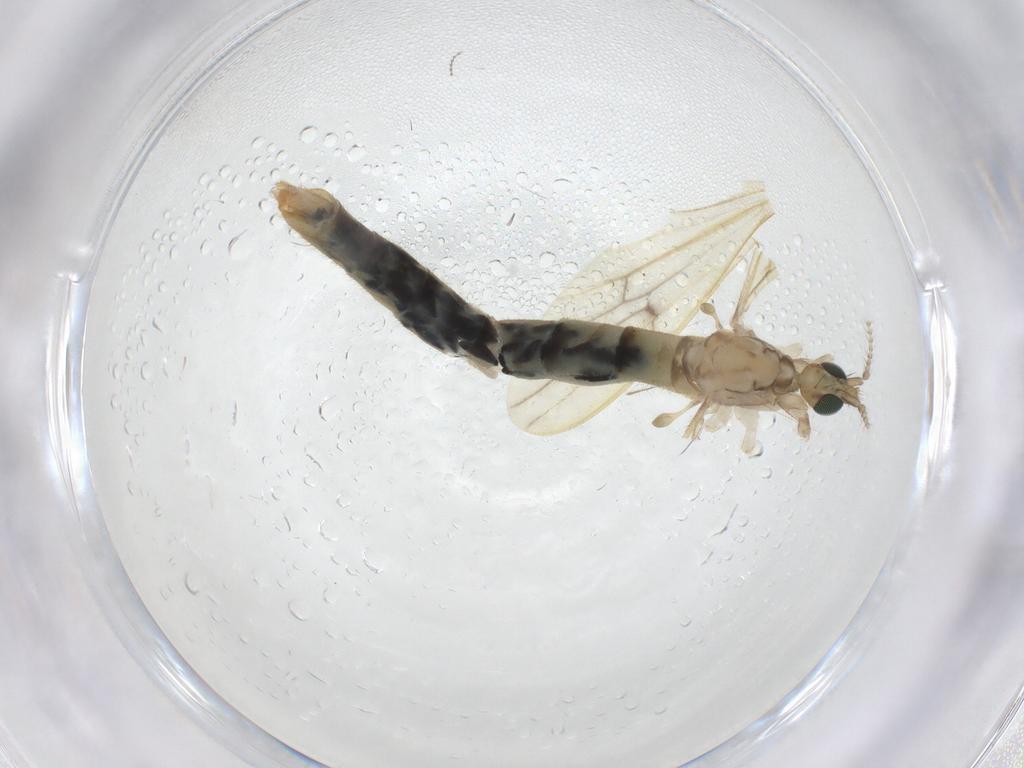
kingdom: Animalia
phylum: Arthropoda
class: Insecta
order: Diptera
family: Limoniidae
